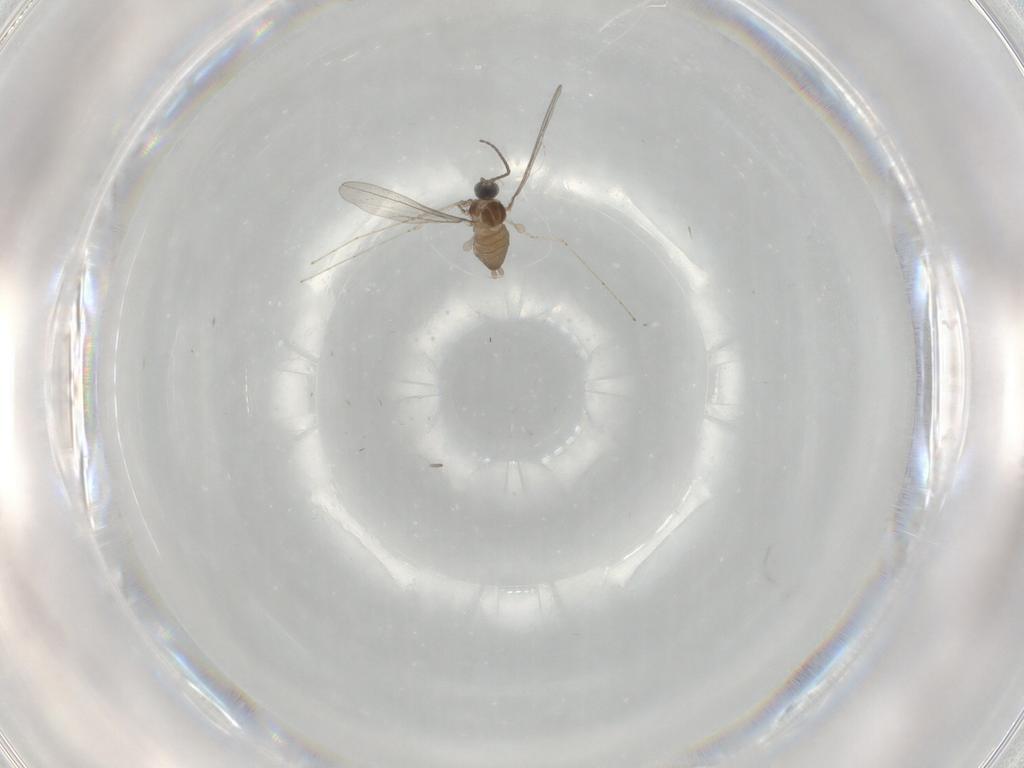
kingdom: Animalia
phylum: Arthropoda
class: Insecta
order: Diptera
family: Cecidomyiidae
